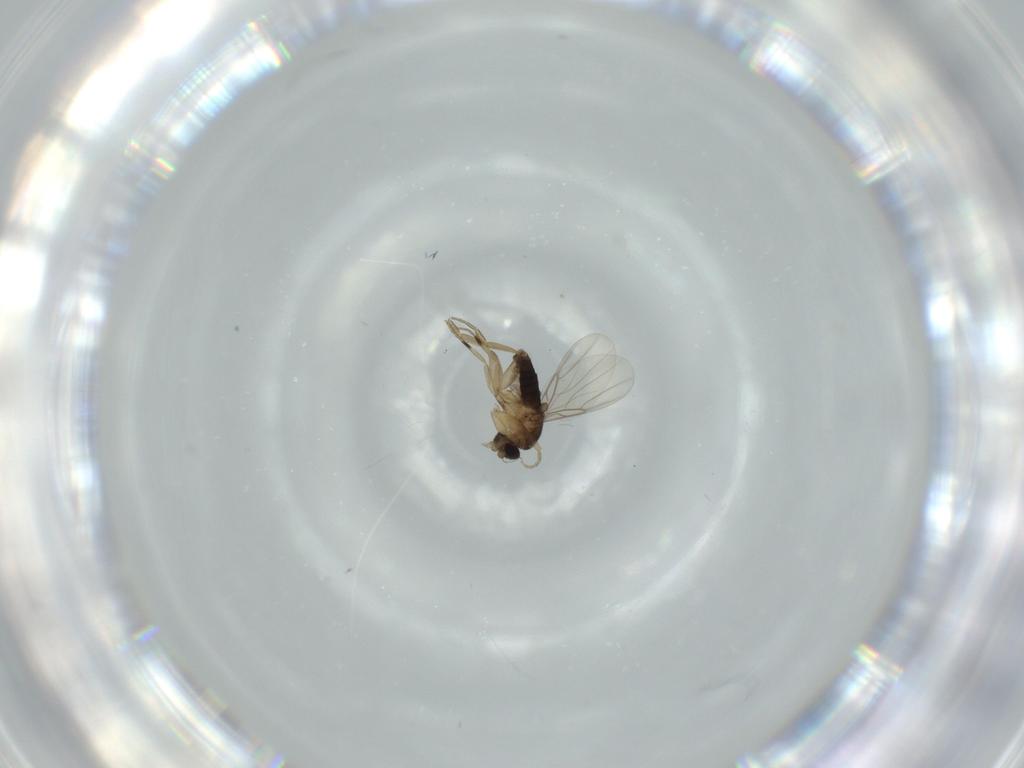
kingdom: Animalia
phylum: Arthropoda
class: Insecta
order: Diptera
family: Phoridae
